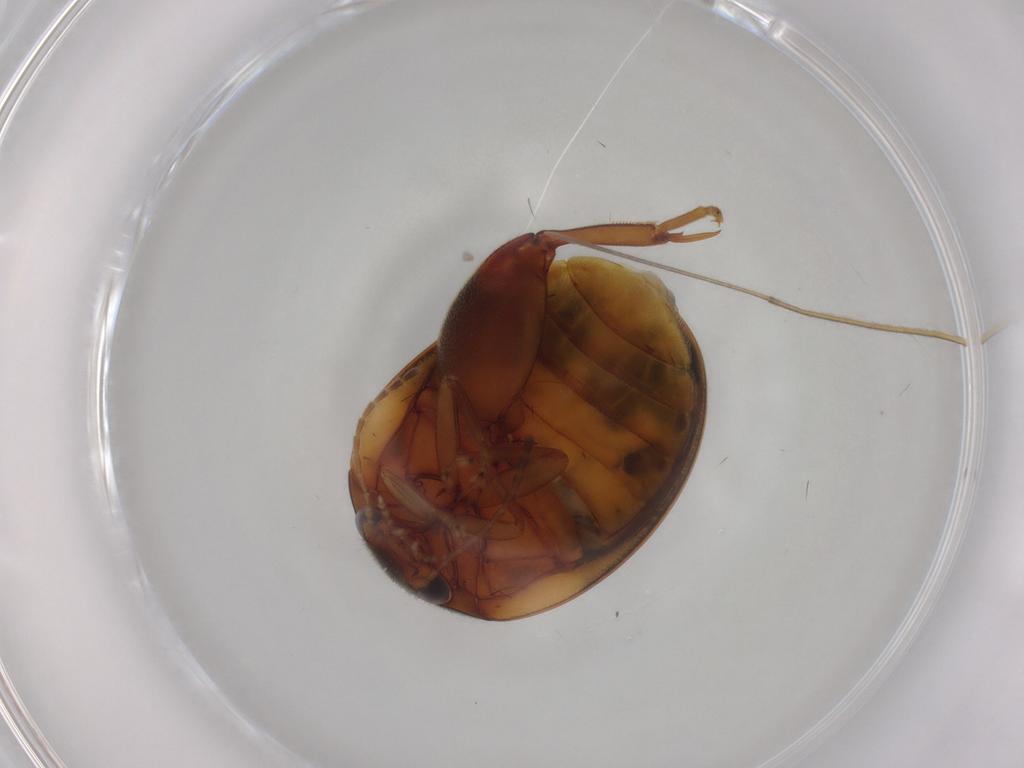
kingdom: Animalia
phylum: Arthropoda
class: Insecta
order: Coleoptera
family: Scirtidae
